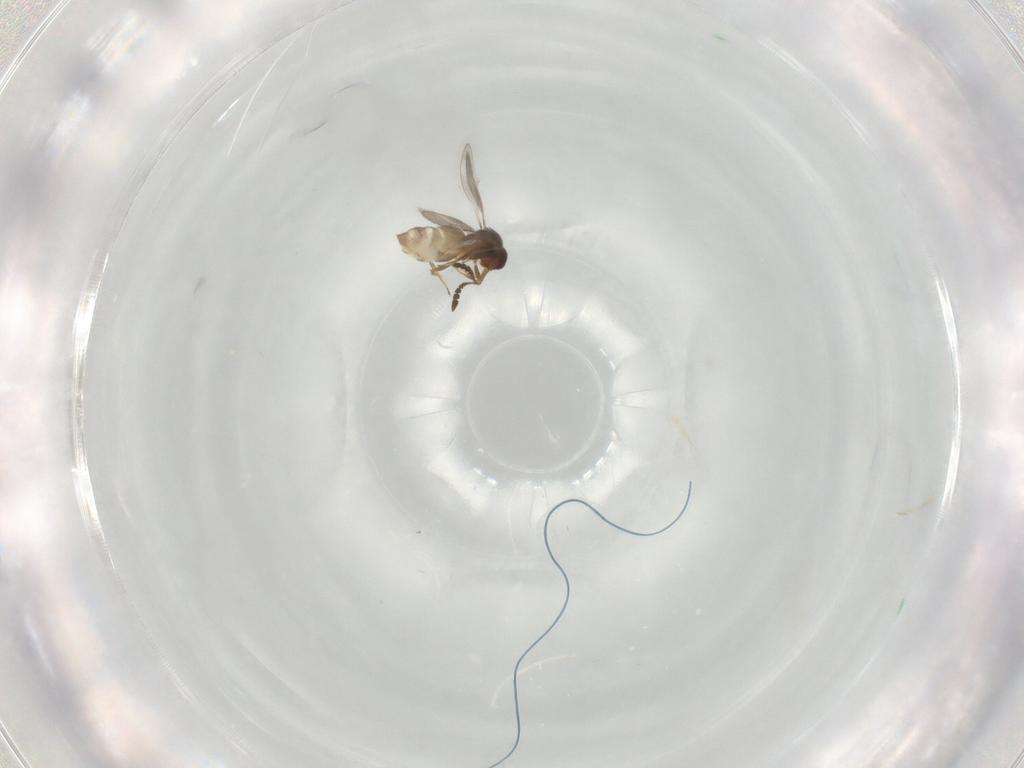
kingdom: Animalia
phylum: Arthropoda
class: Insecta
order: Hymenoptera
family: Ceraphronidae
